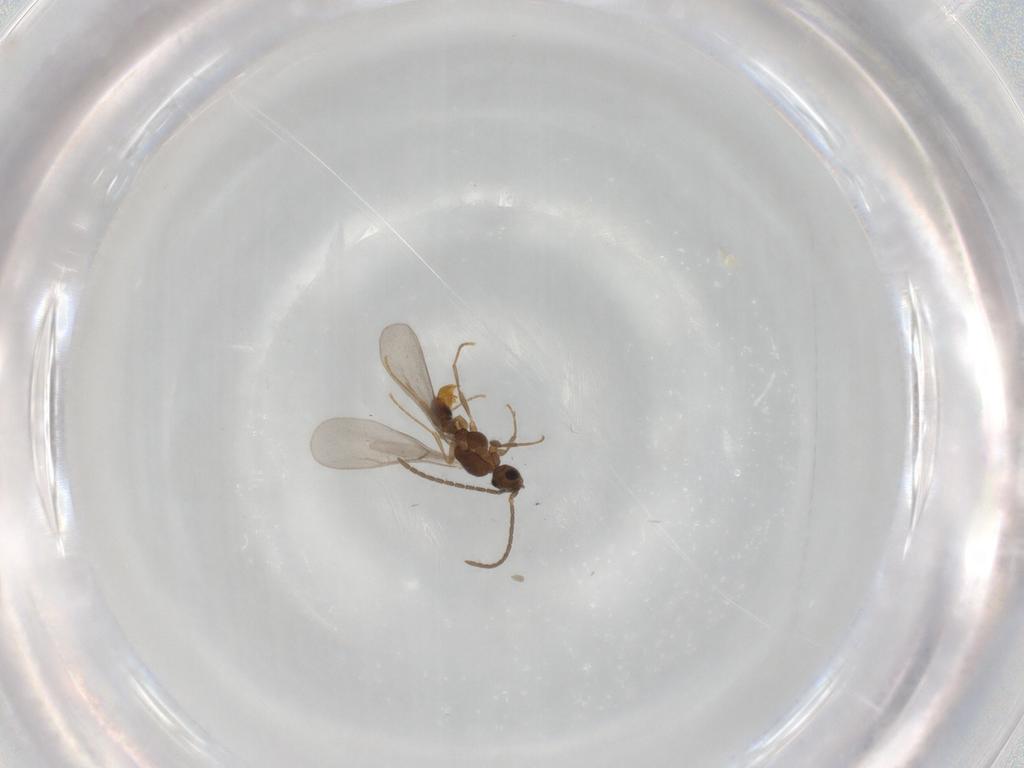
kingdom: Animalia
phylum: Arthropoda
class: Insecta
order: Hymenoptera
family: Formicidae
